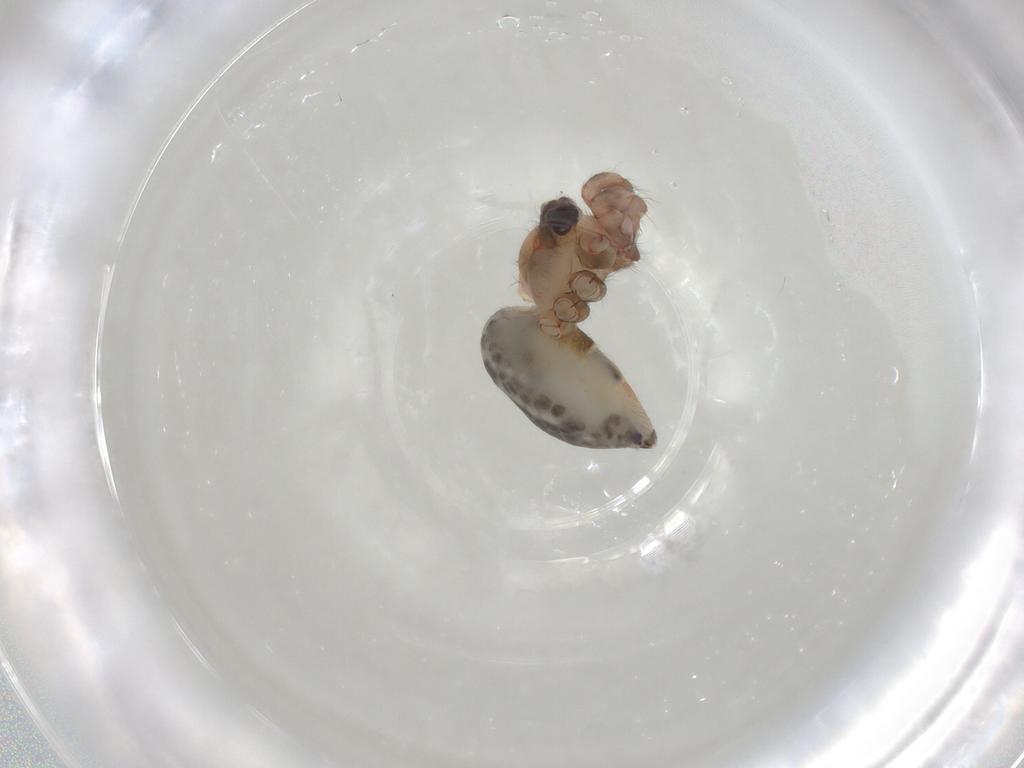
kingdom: Animalia
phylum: Arthropoda
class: Arachnida
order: Araneae
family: Pholcidae
